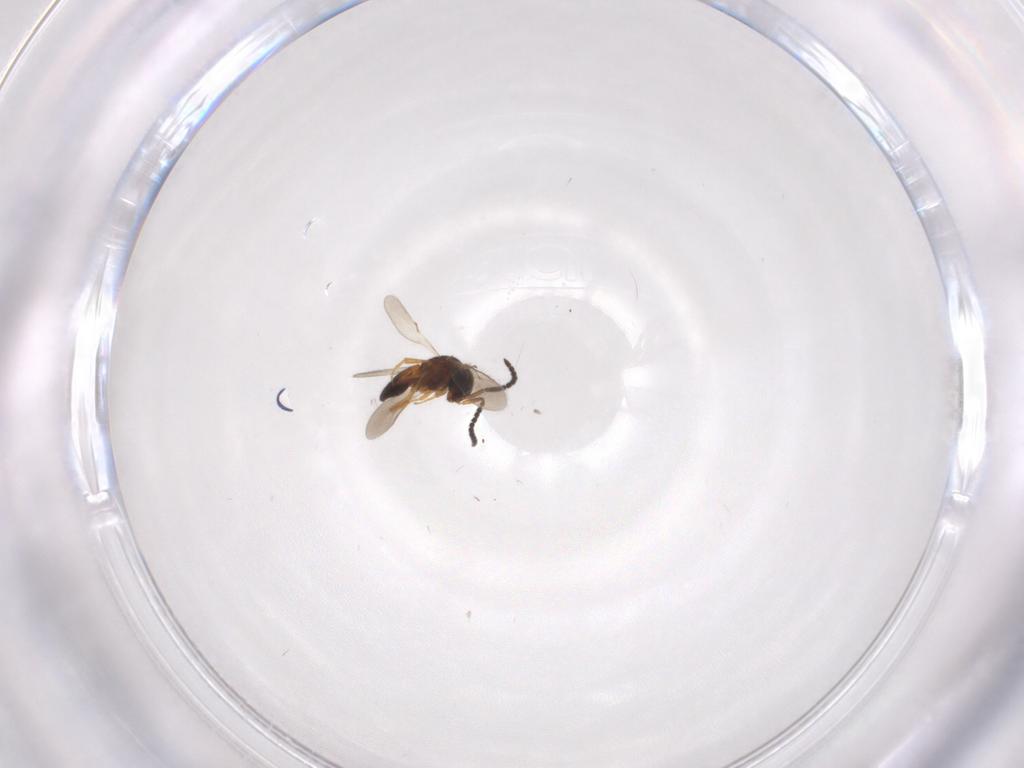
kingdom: Animalia
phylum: Arthropoda
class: Insecta
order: Hymenoptera
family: Scelionidae
